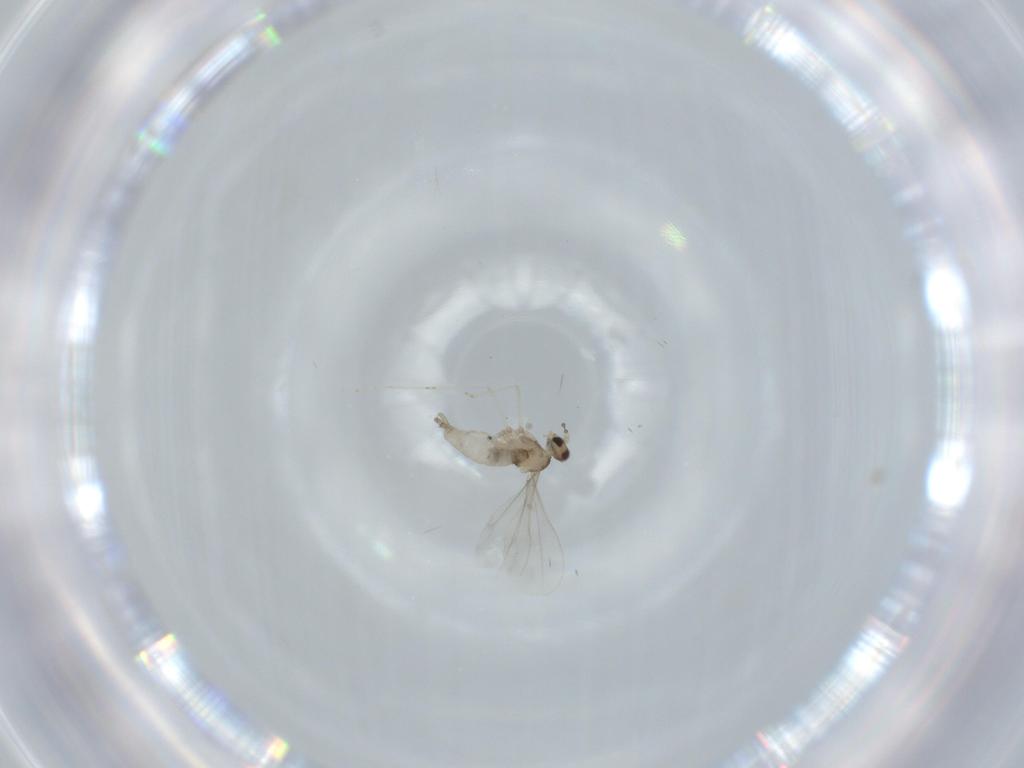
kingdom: Animalia
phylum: Arthropoda
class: Insecta
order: Diptera
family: Cecidomyiidae
